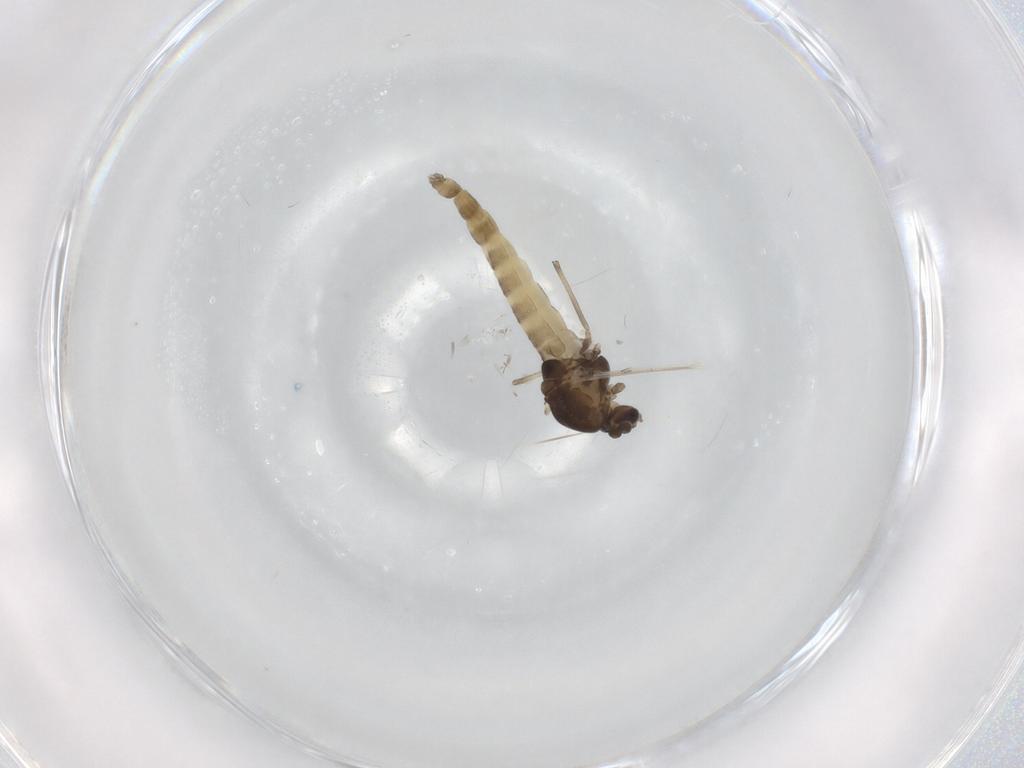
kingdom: Animalia
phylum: Arthropoda
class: Insecta
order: Diptera
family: Chironomidae
